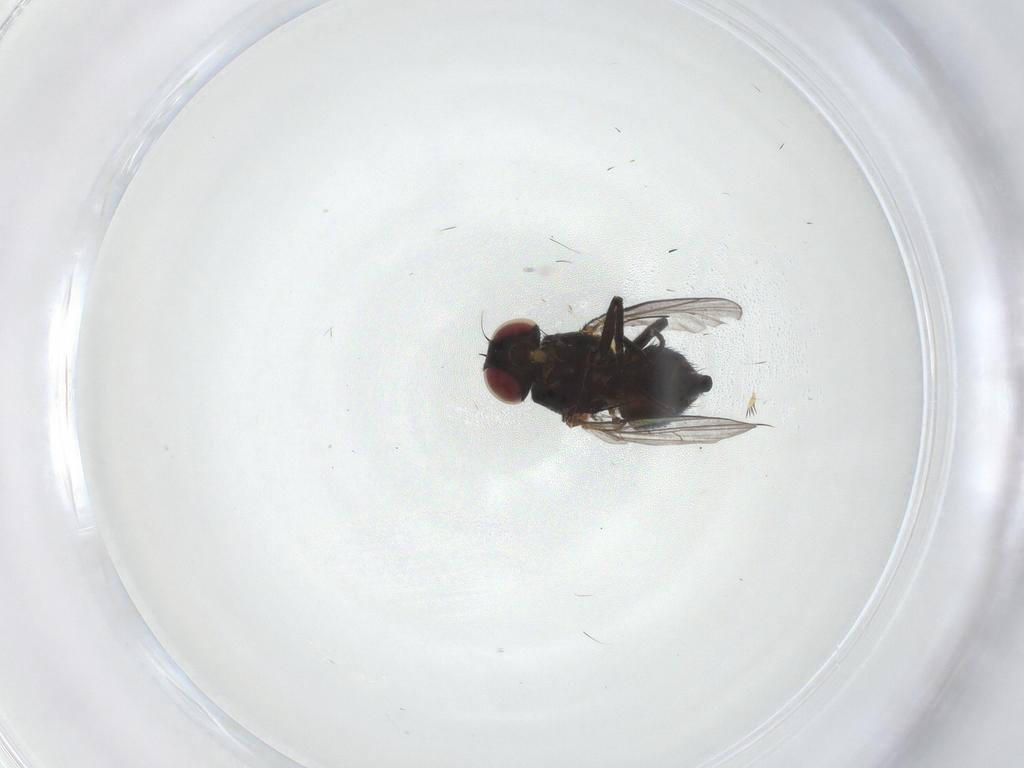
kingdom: Animalia
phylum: Arthropoda
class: Insecta
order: Diptera
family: Agromyzidae
